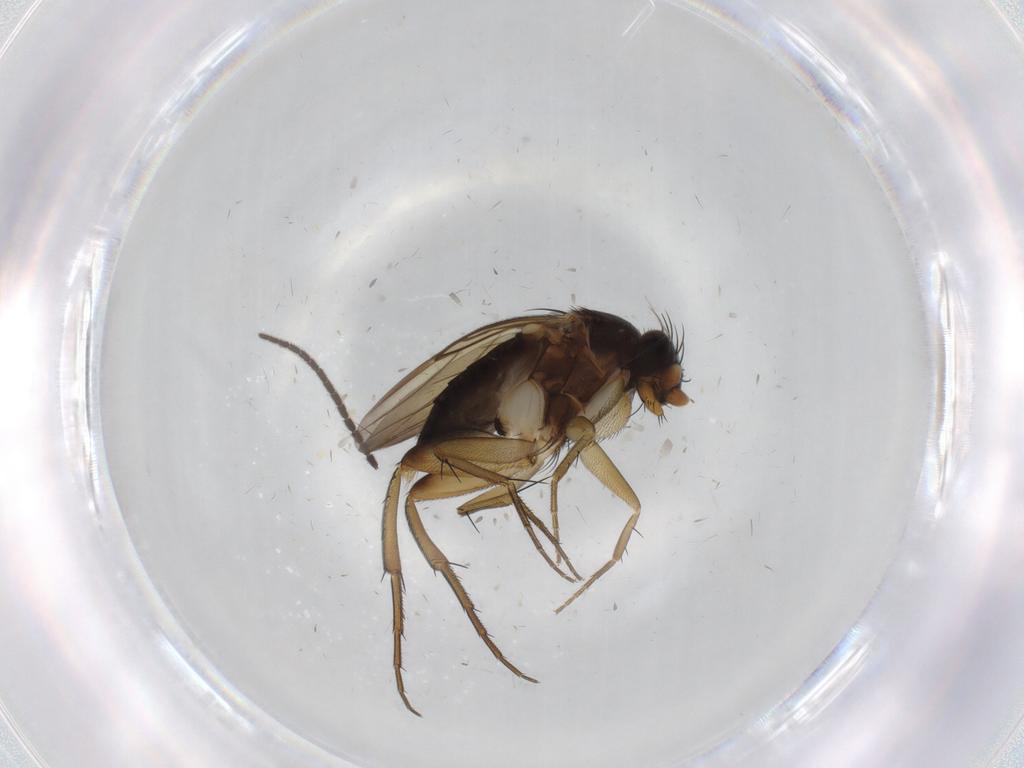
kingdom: Animalia
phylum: Arthropoda
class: Insecta
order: Diptera
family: Phoridae
